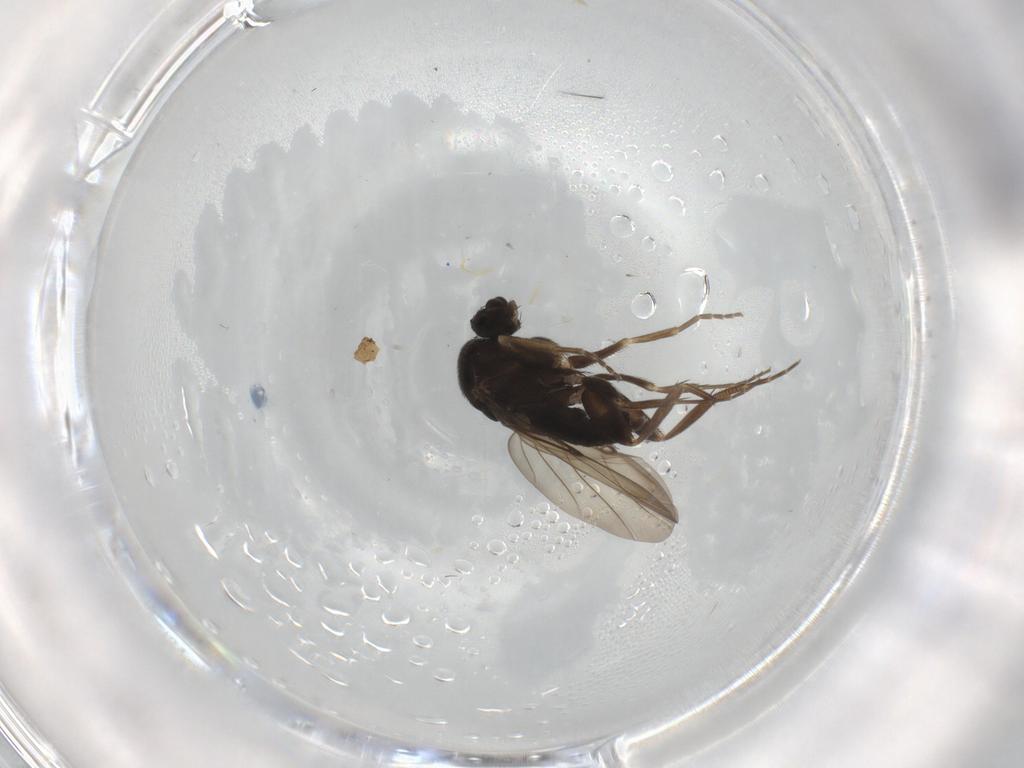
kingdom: Animalia
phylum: Arthropoda
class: Insecta
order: Diptera
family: Phoridae
